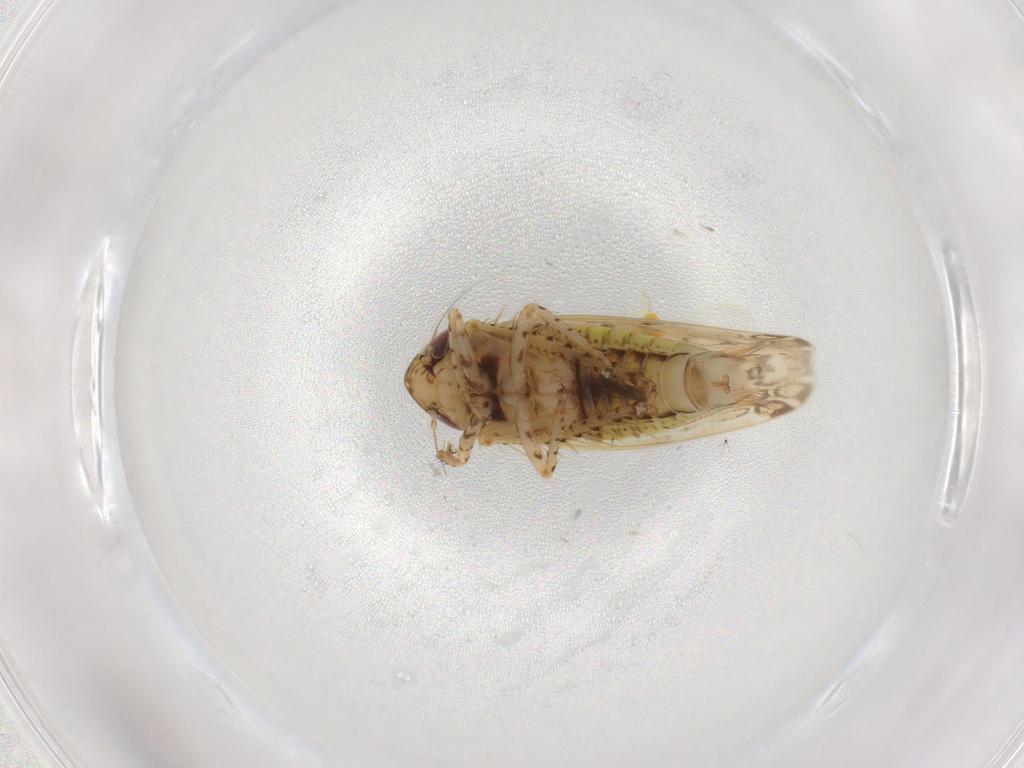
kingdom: Animalia
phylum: Arthropoda
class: Insecta
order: Hemiptera
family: Cicadellidae
